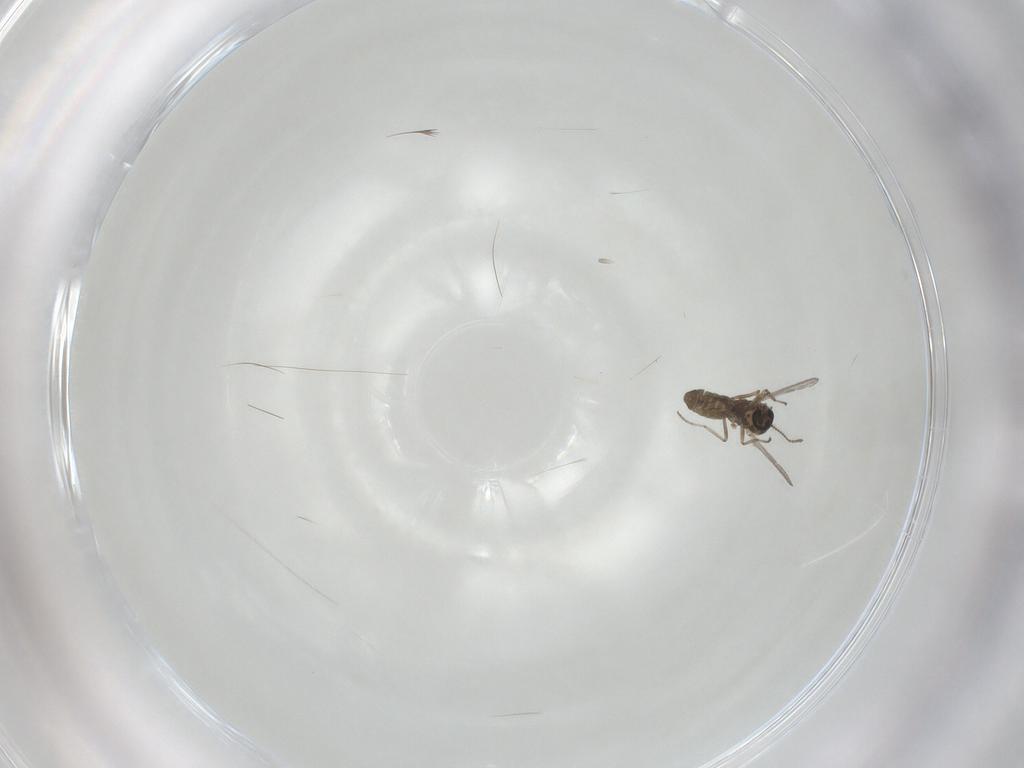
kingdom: Animalia
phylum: Arthropoda
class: Insecta
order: Diptera
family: Ceratopogonidae
